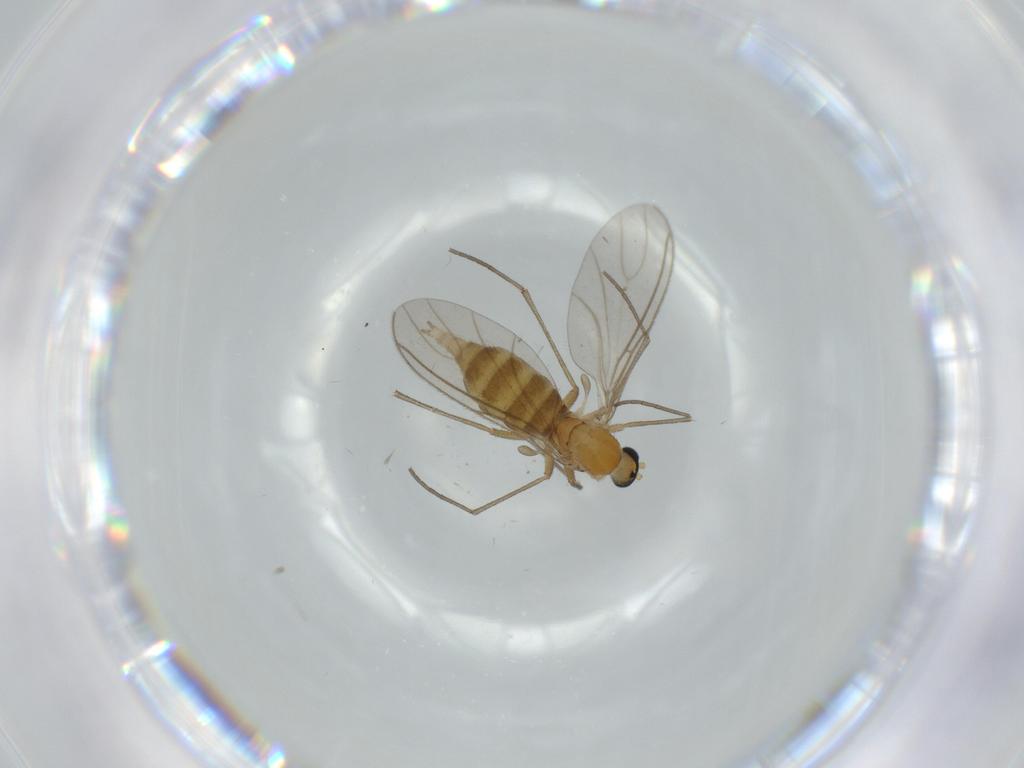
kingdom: Animalia
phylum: Arthropoda
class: Insecta
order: Diptera
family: Sciaridae
